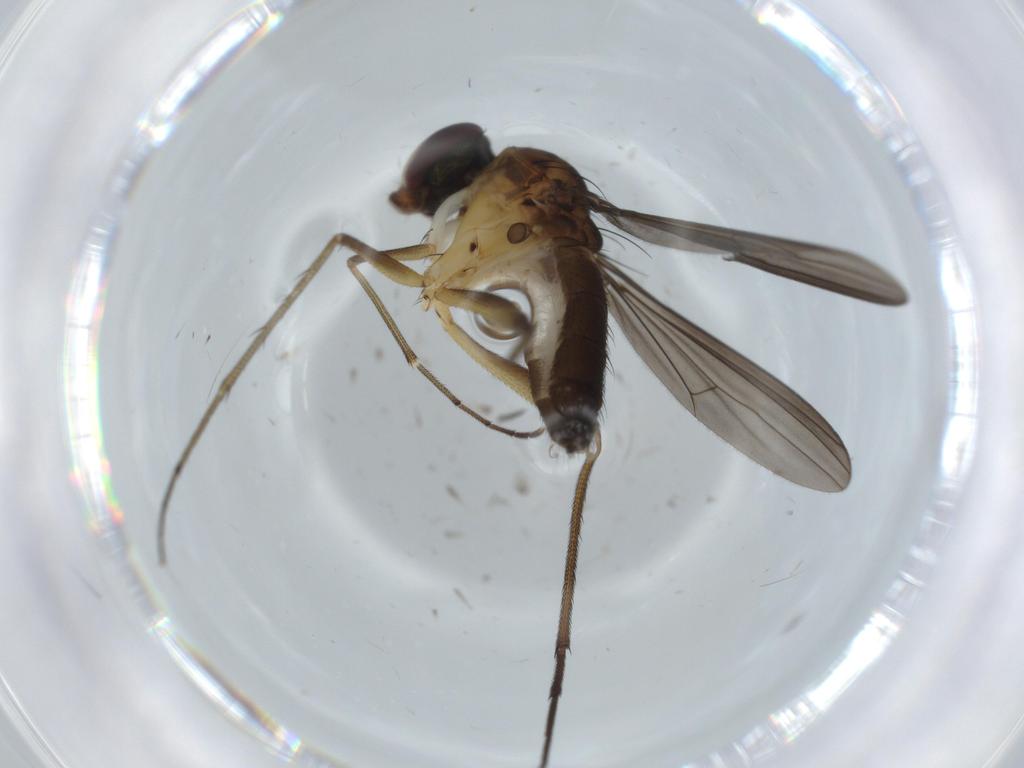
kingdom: Animalia
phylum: Arthropoda
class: Insecta
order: Diptera
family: Dolichopodidae
